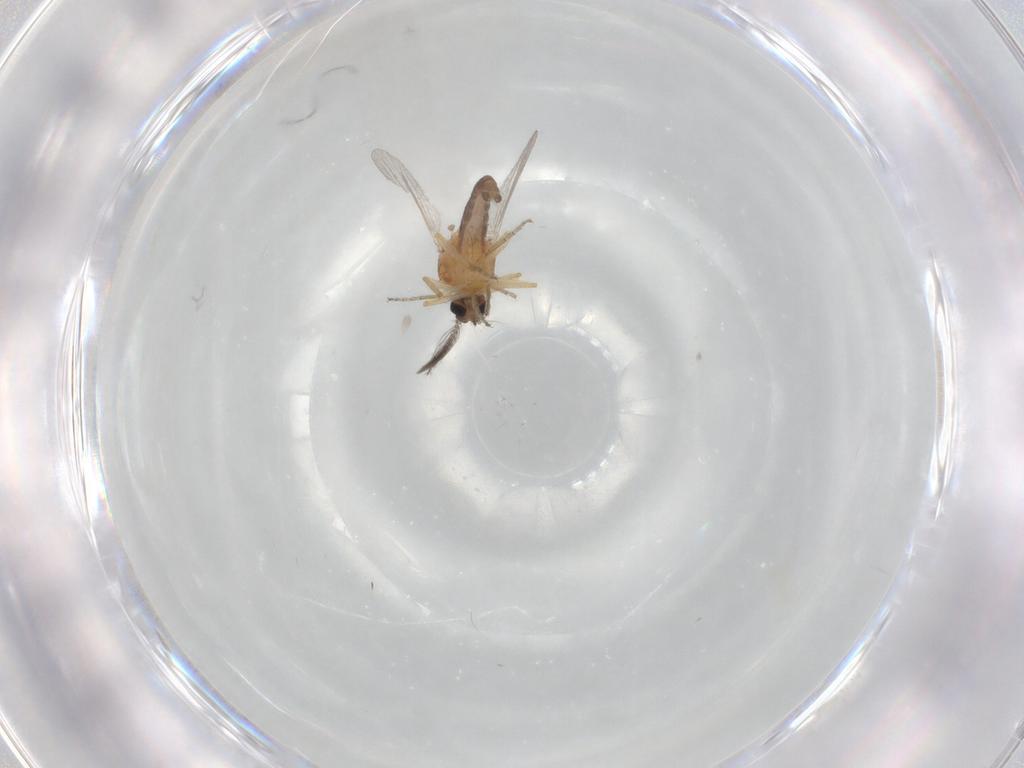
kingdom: Animalia
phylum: Arthropoda
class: Insecta
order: Diptera
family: Ceratopogonidae
